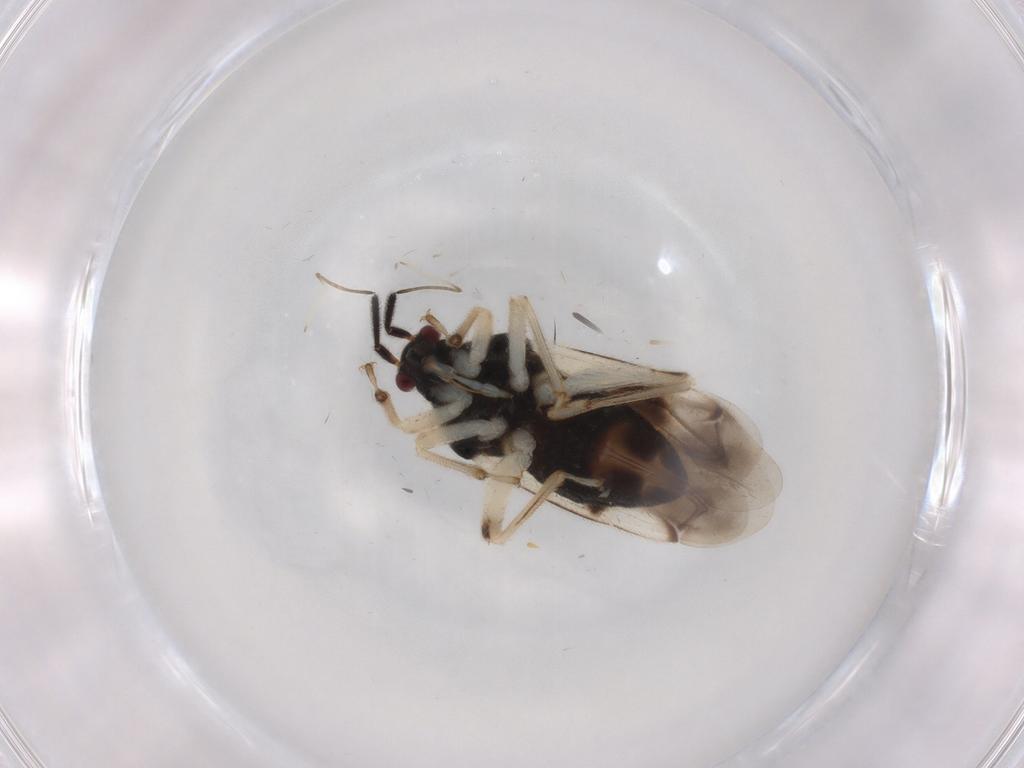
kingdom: Animalia
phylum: Arthropoda
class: Insecta
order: Hemiptera
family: Miridae
